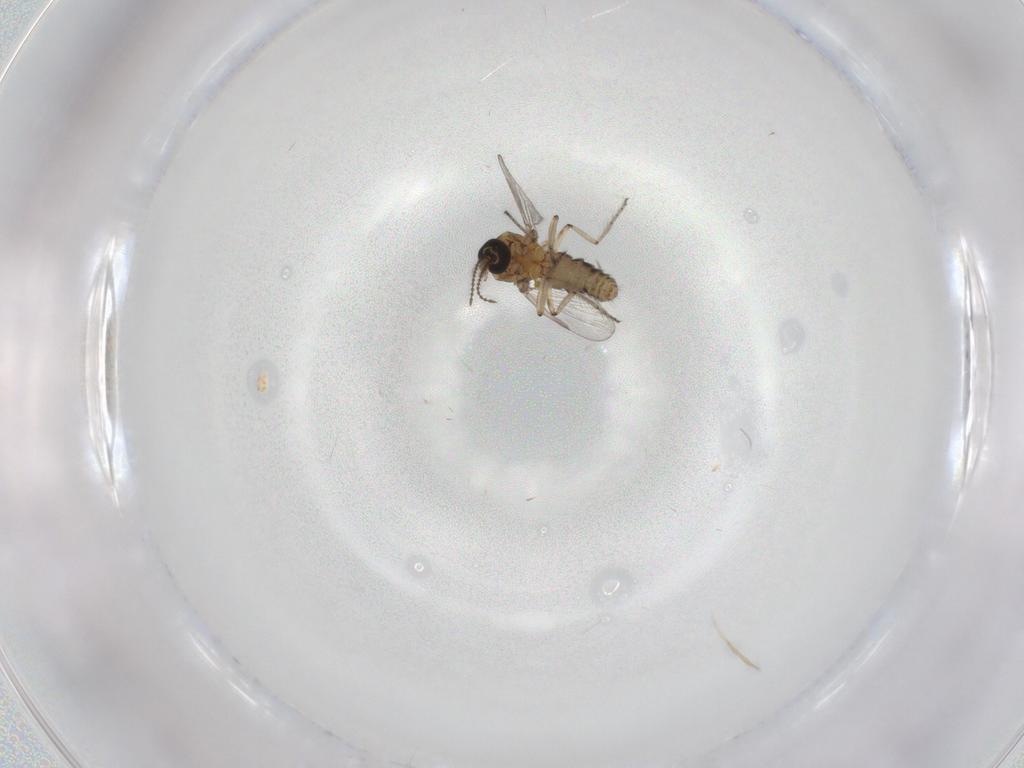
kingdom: Animalia
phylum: Arthropoda
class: Insecta
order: Diptera
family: Ceratopogonidae
